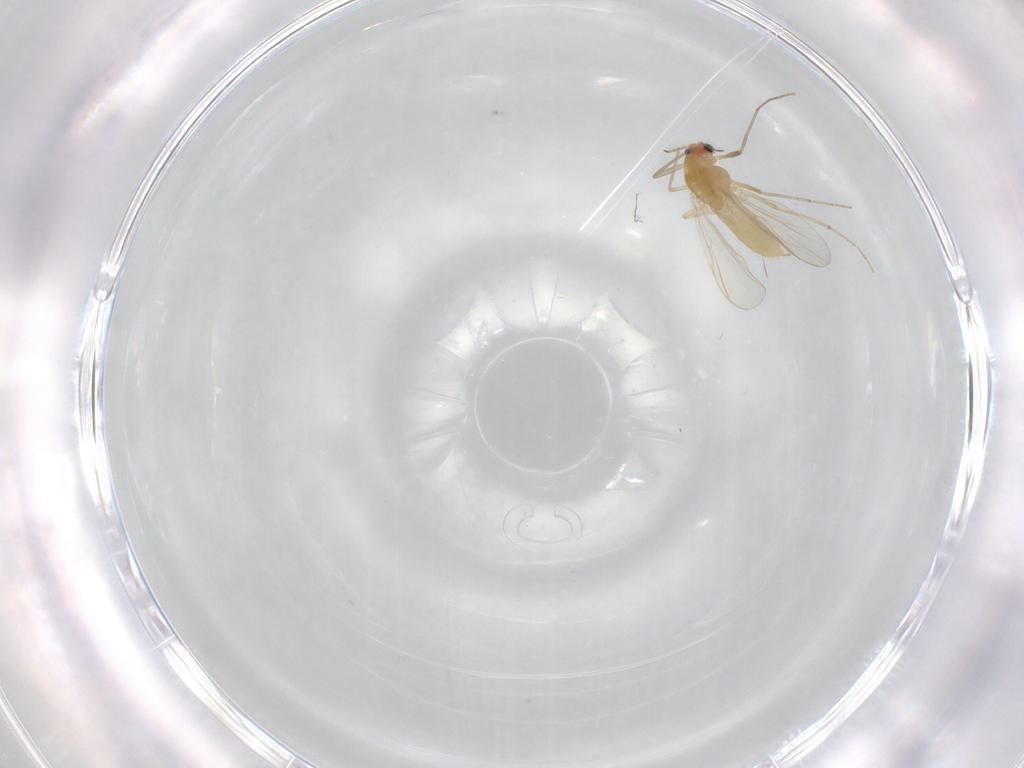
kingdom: Animalia
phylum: Arthropoda
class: Insecta
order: Diptera
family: Chironomidae
